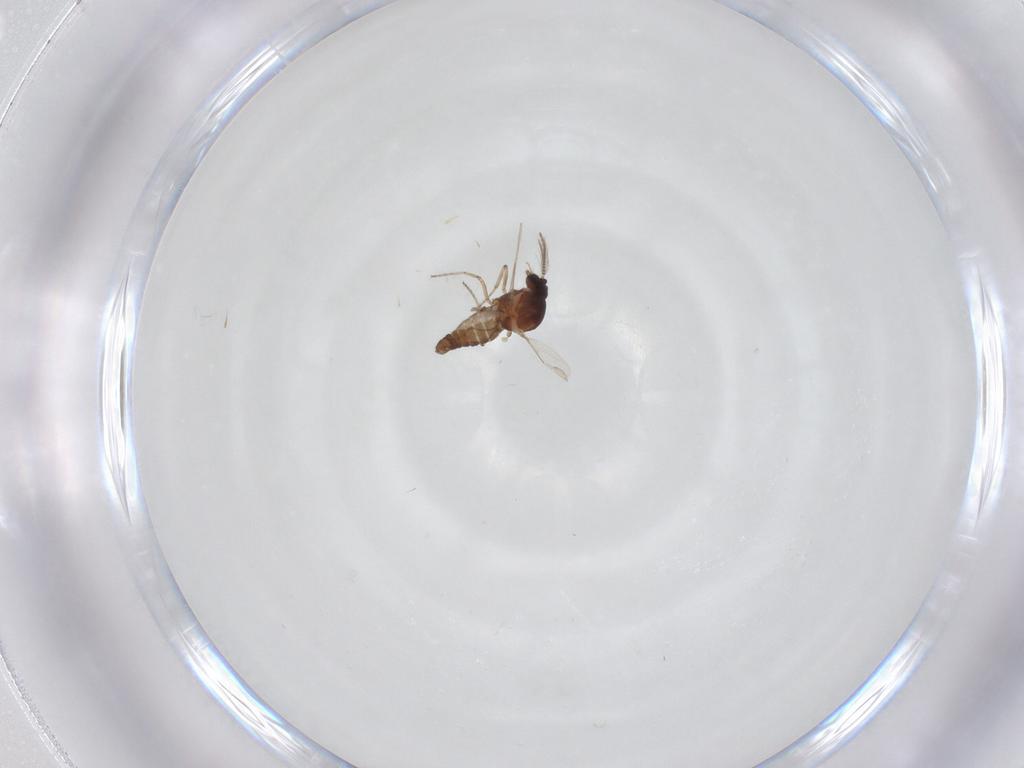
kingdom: Animalia
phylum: Arthropoda
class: Insecta
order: Diptera
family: Ceratopogonidae
